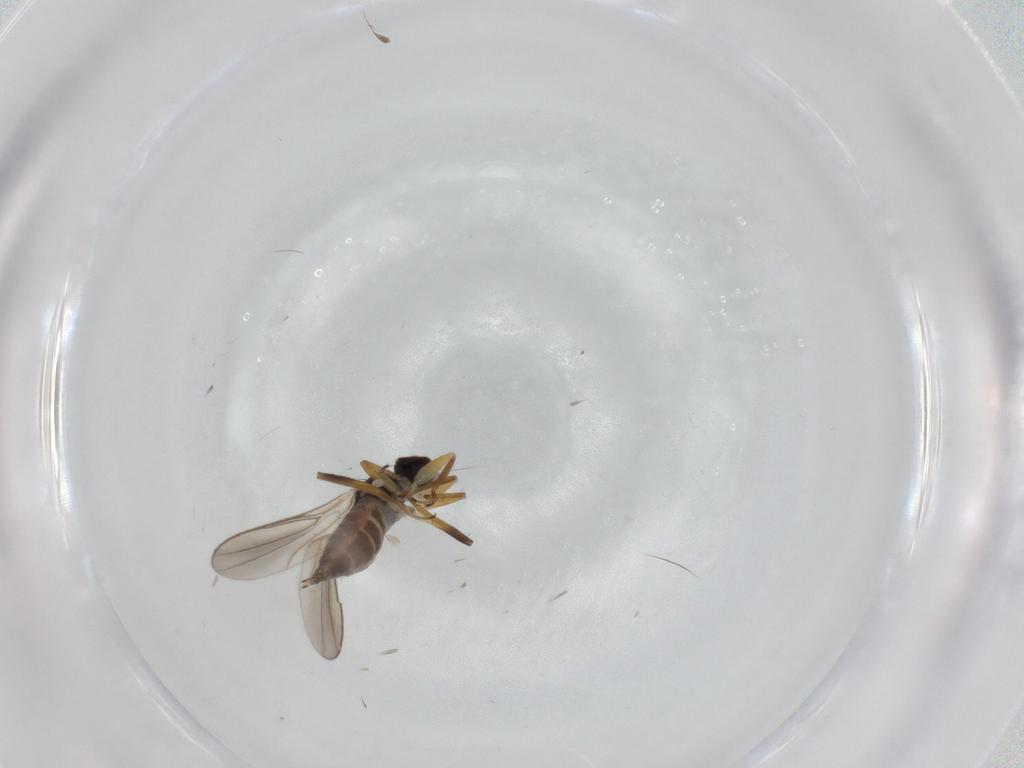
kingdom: Animalia
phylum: Arthropoda
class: Insecta
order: Diptera
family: Hybotidae
